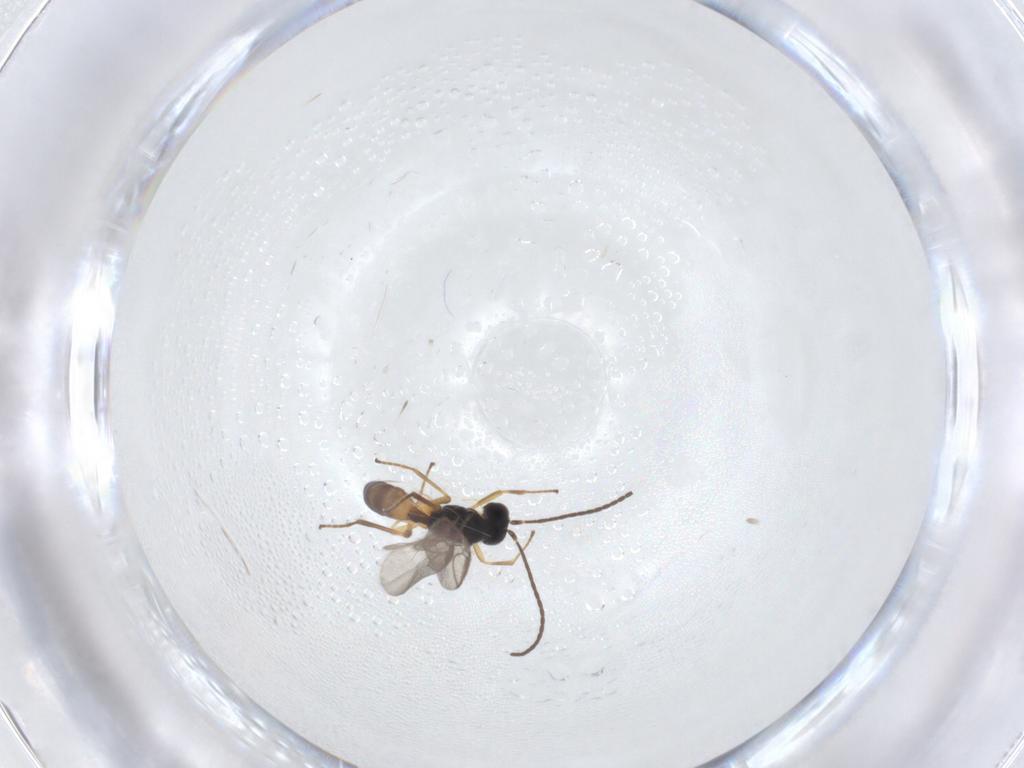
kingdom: Animalia
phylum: Arthropoda
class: Insecta
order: Hymenoptera
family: Braconidae
